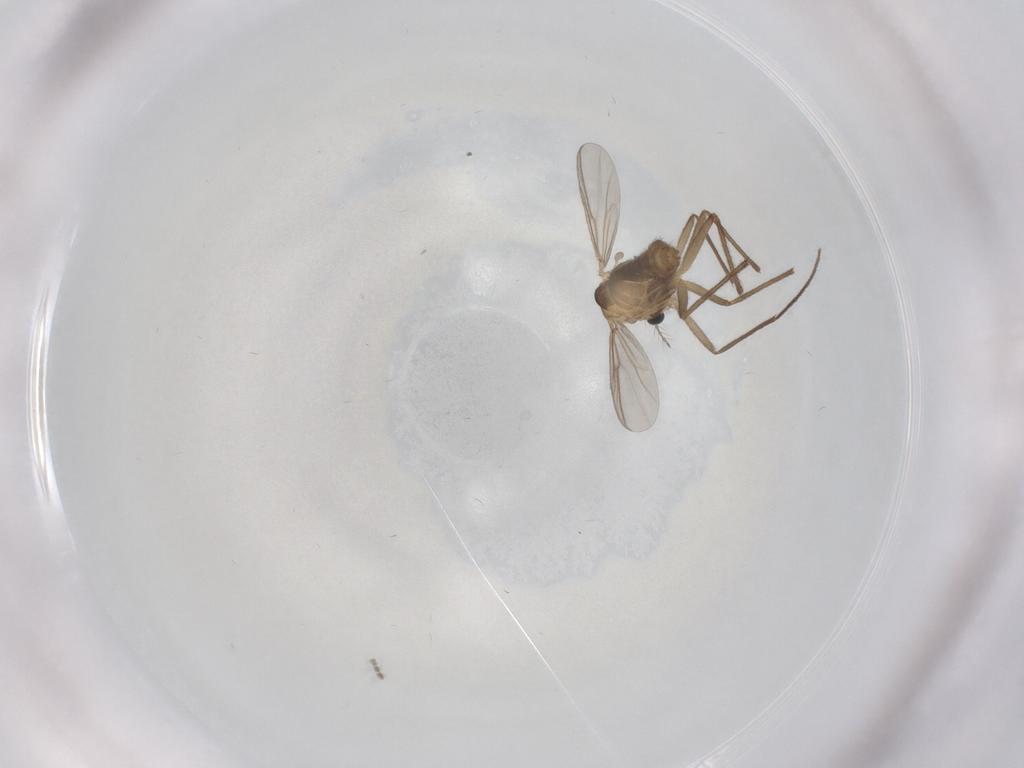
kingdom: Animalia
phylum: Arthropoda
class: Insecta
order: Diptera
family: Chironomidae
